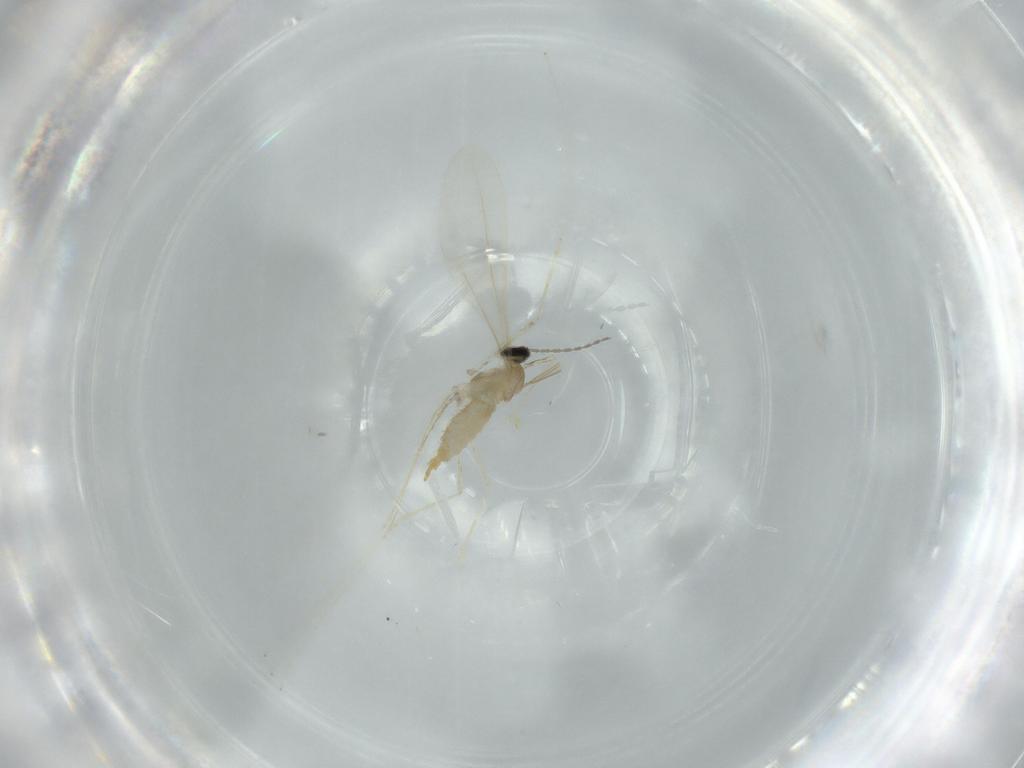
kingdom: Animalia
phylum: Arthropoda
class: Insecta
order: Diptera
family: Cecidomyiidae
